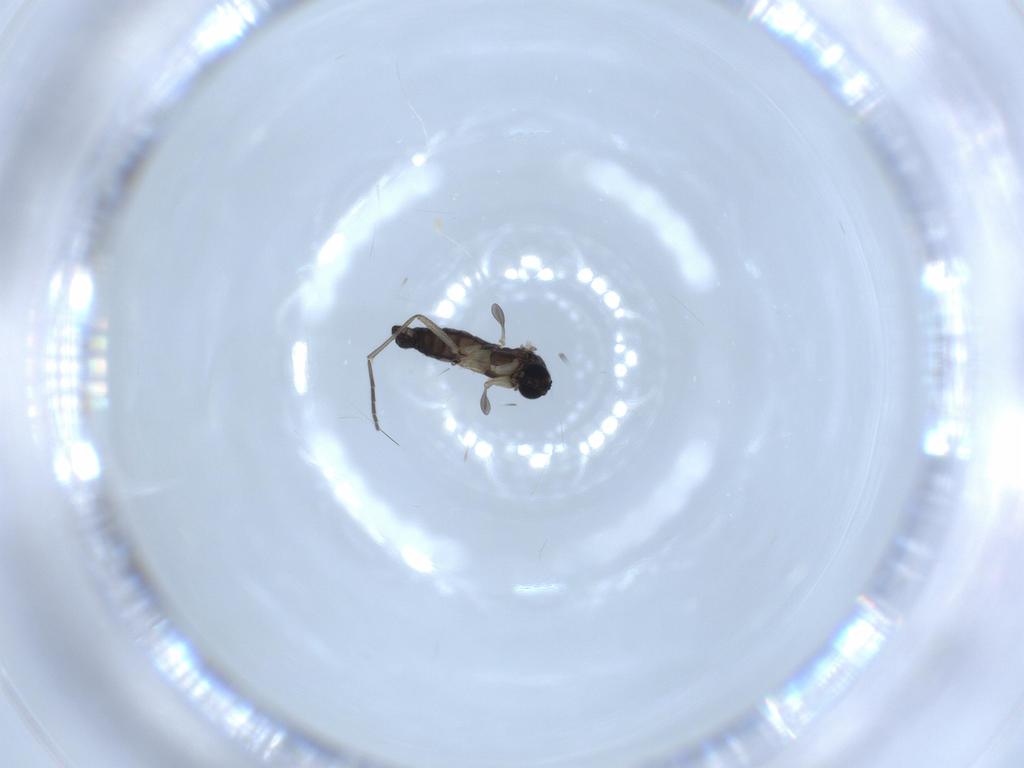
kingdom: Animalia
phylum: Arthropoda
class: Insecta
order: Diptera
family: Sciaridae
